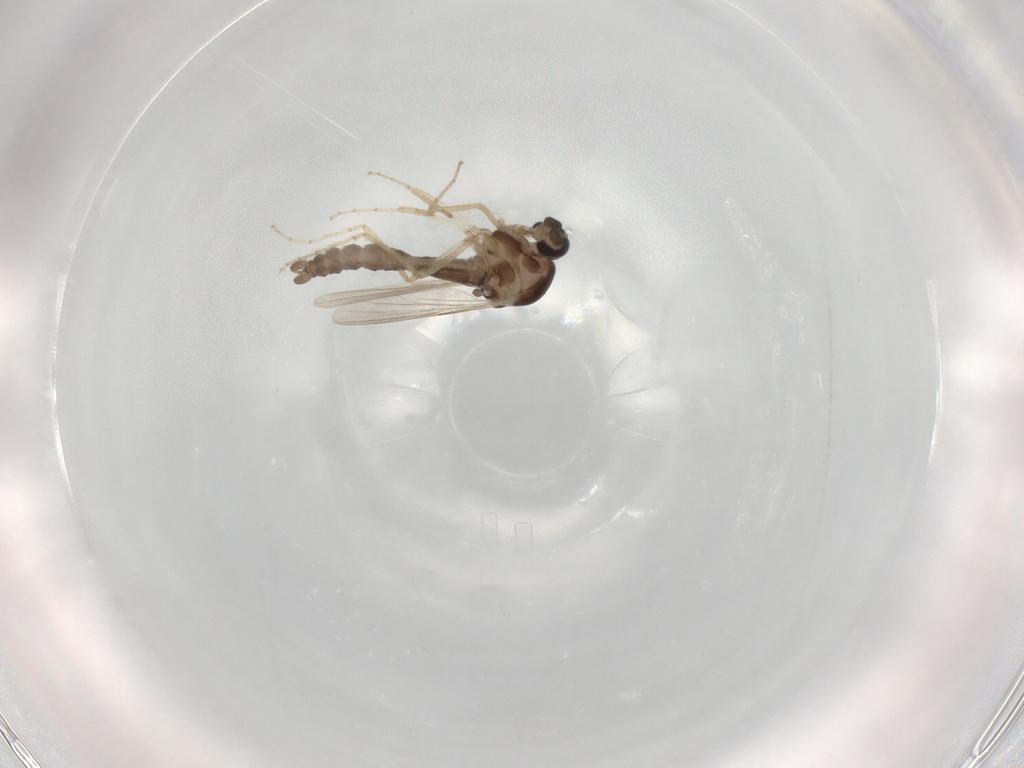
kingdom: Animalia
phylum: Arthropoda
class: Insecta
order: Diptera
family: Ceratopogonidae
